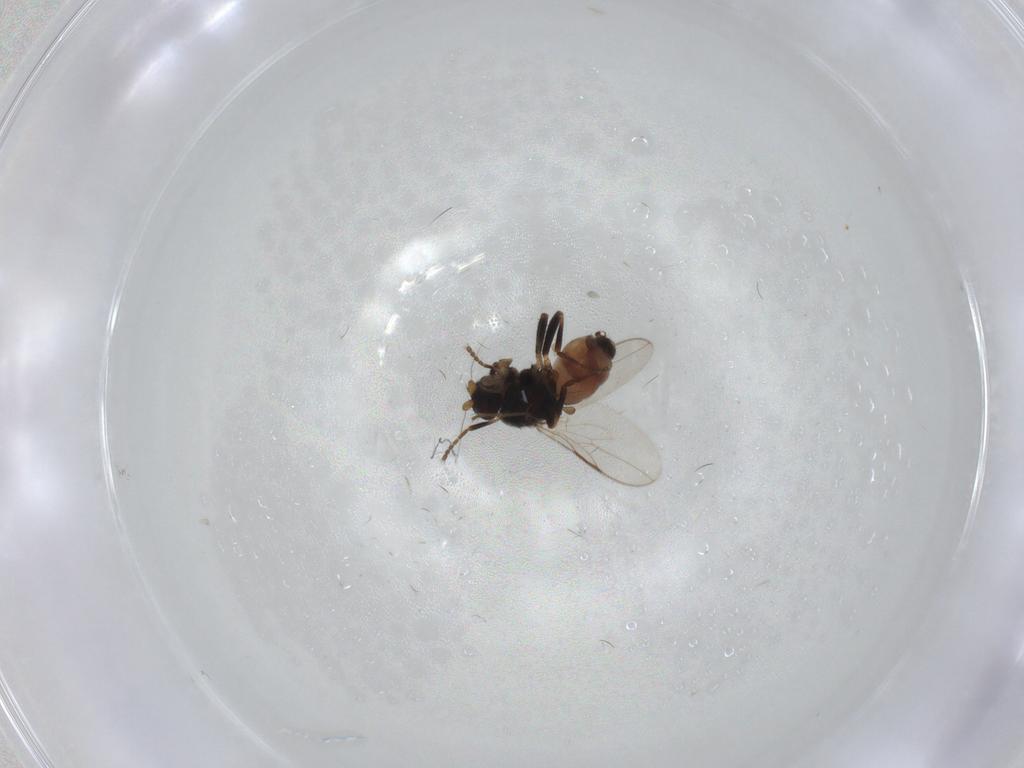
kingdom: Animalia
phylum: Arthropoda
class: Insecta
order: Diptera
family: Sphaeroceridae
